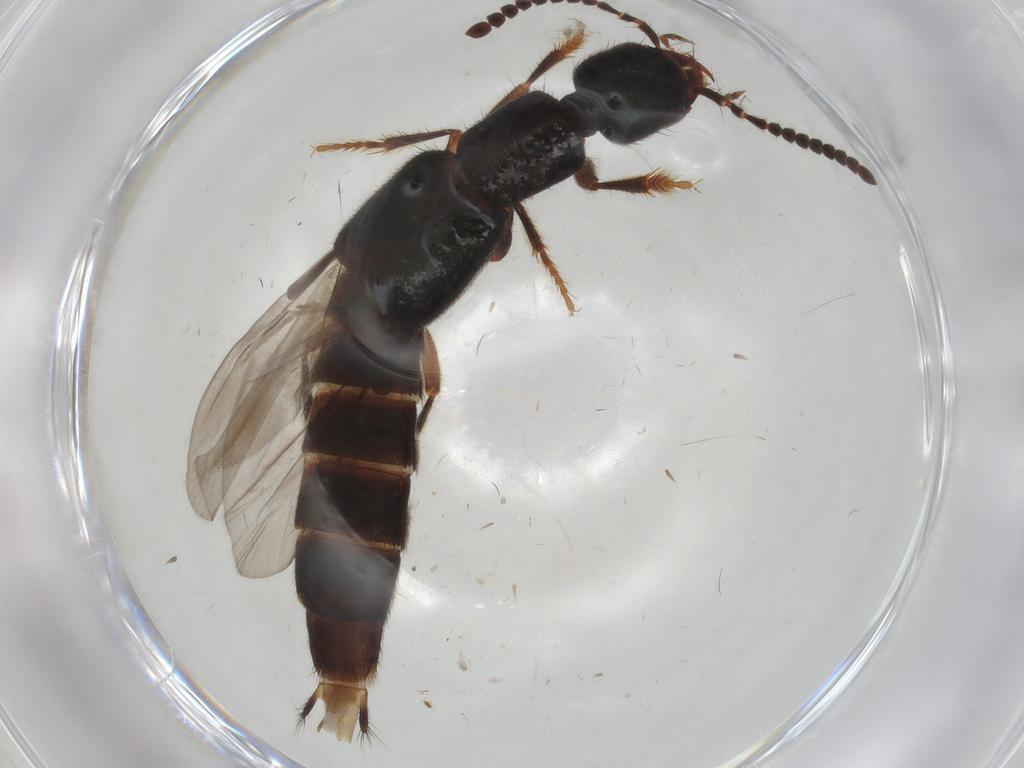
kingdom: Animalia
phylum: Arthropoda
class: Insecta
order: Coleoptera
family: Staphylinidae
